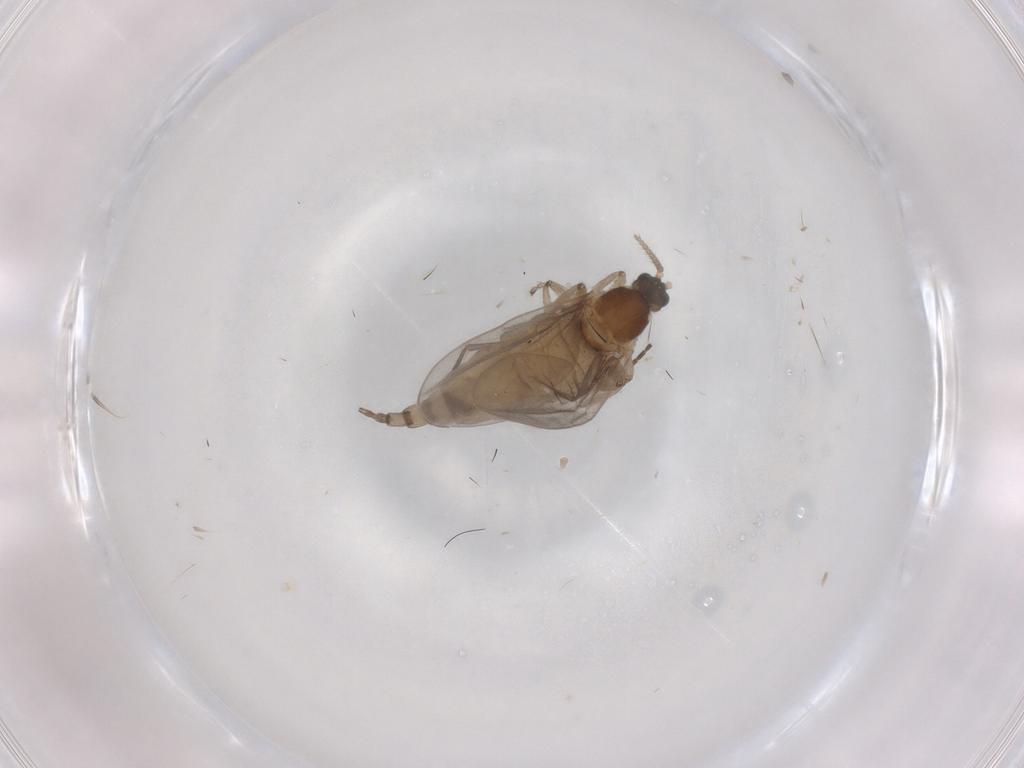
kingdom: Animalia
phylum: Arthropoda
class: Insecta
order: Diptera
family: Cecidomyiidae
